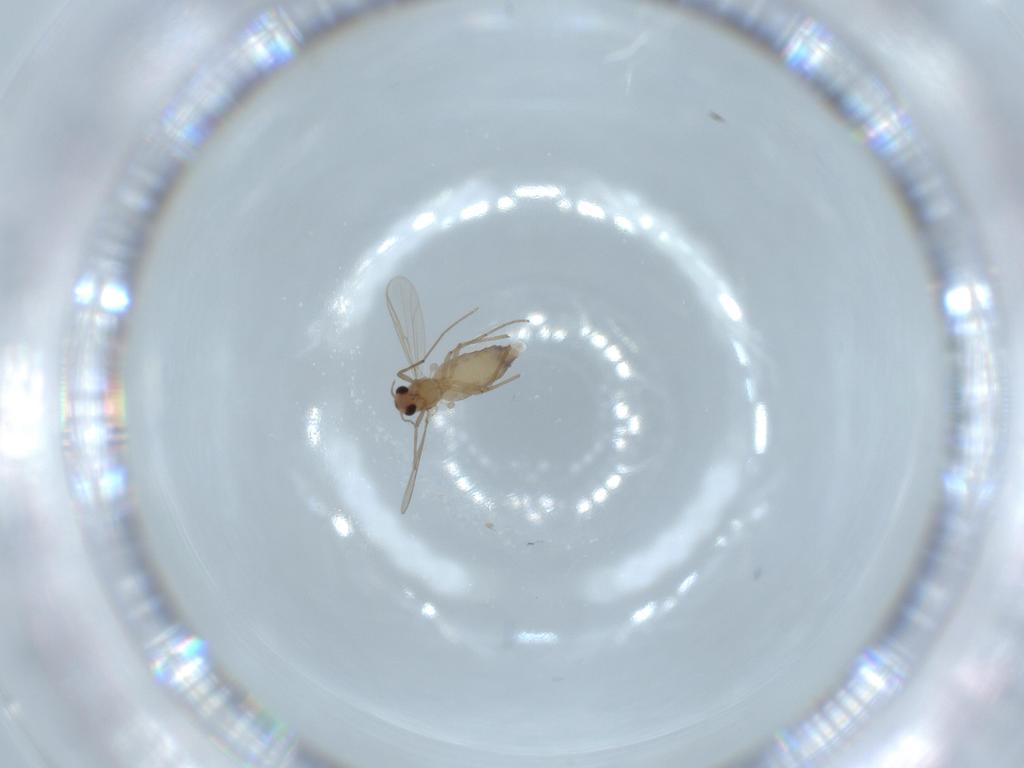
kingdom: Animalia
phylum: Arthropoda
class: Insecta
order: Diptera
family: Chironomidae
